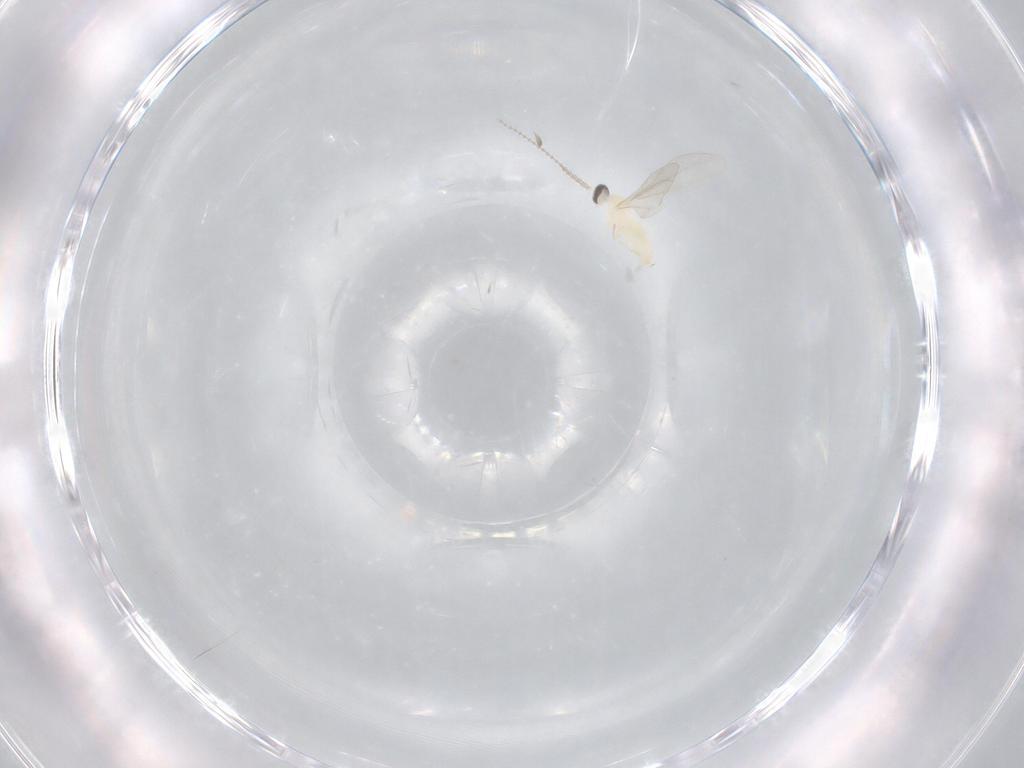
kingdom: Animalia
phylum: Arthropoda
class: Insecta
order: Diptera
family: Cecidomyiidae
